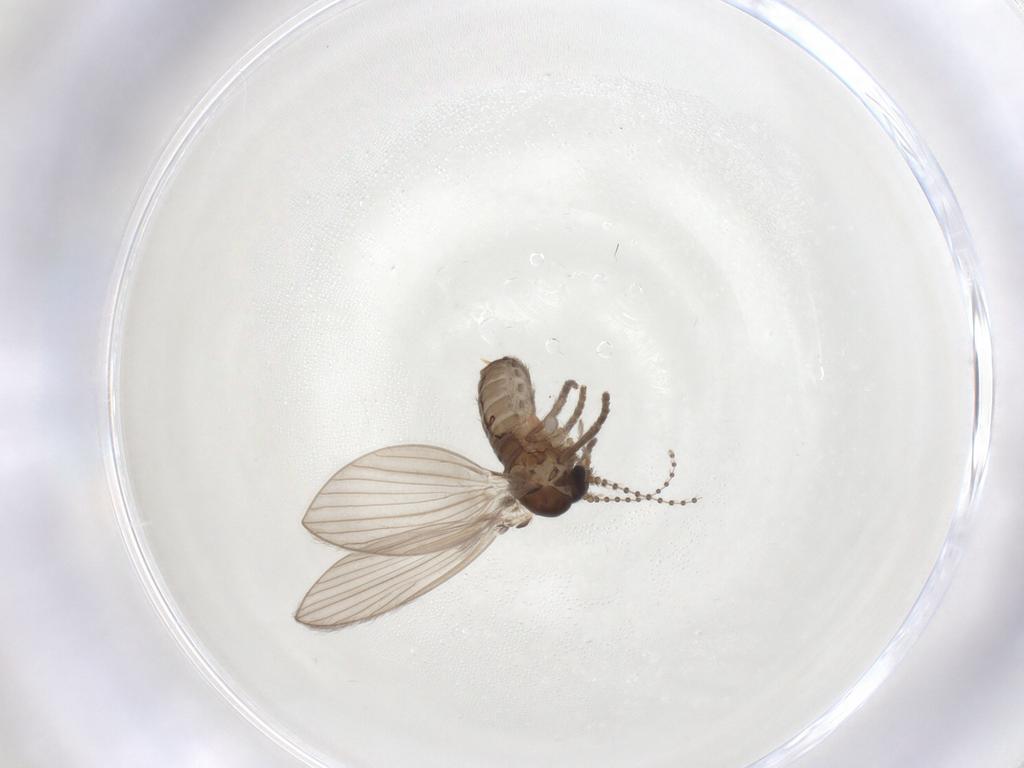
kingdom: Animalia
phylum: Arthropoda
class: Insecta
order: Diptera
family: Psychodidae
